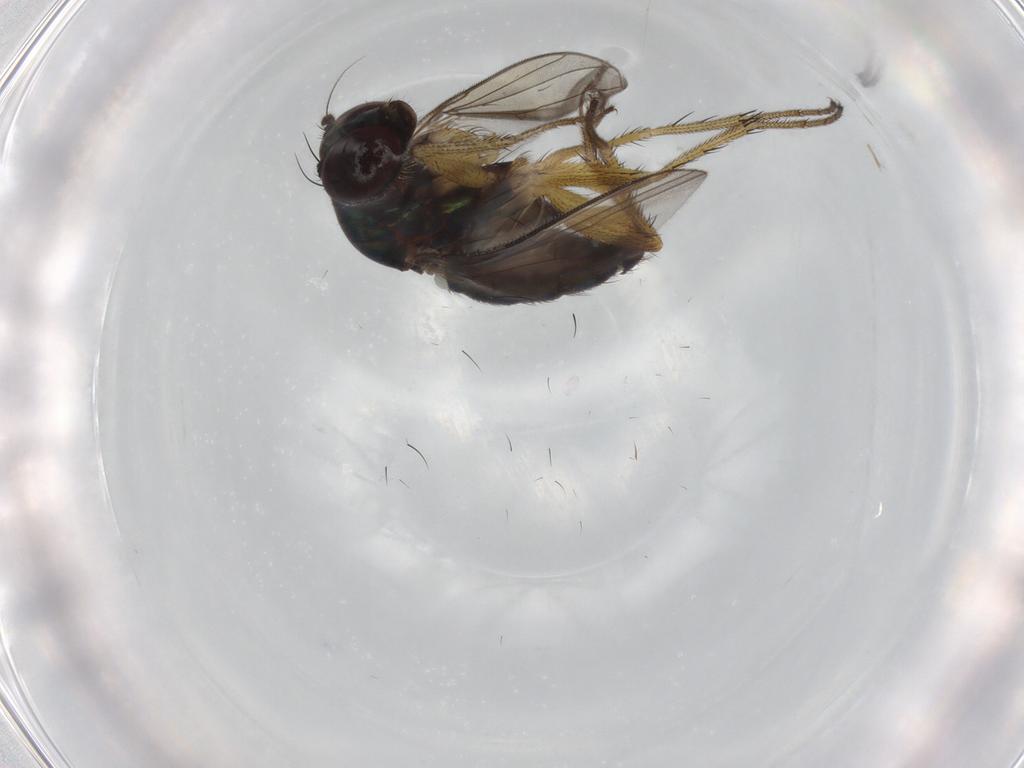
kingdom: Animalia
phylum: Arthropoda
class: Insecta
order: Diptera
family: Dolichopodidae
